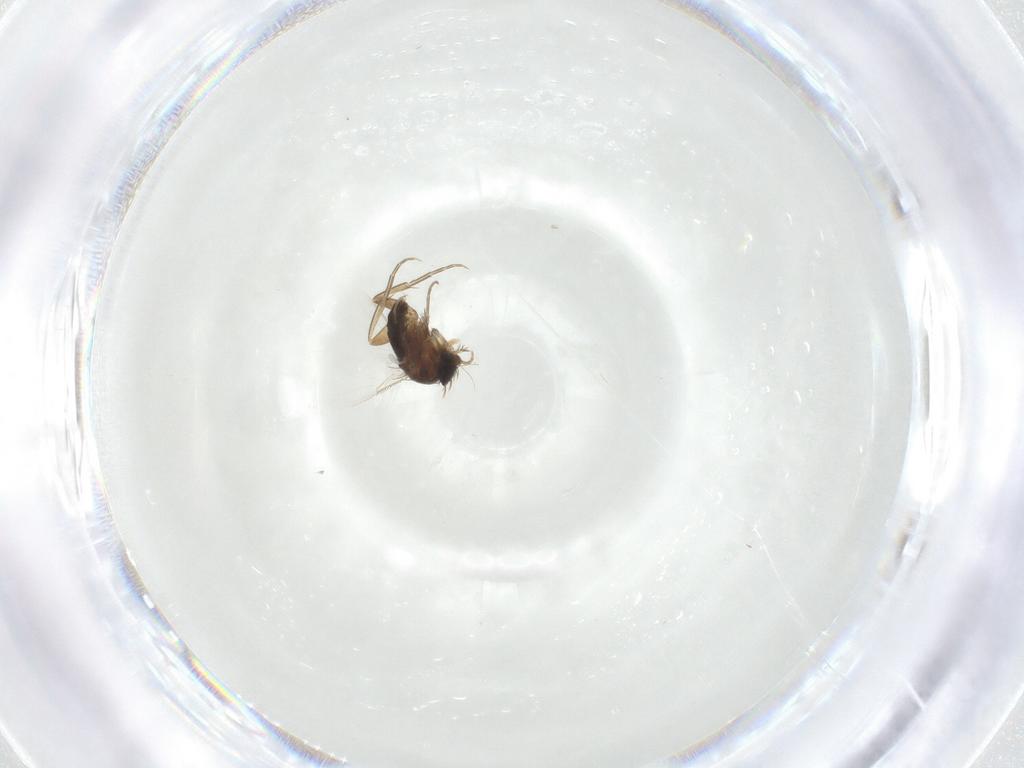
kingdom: Animalia
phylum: Arthropoda
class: Insecta
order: Diptera
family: Phoridae
